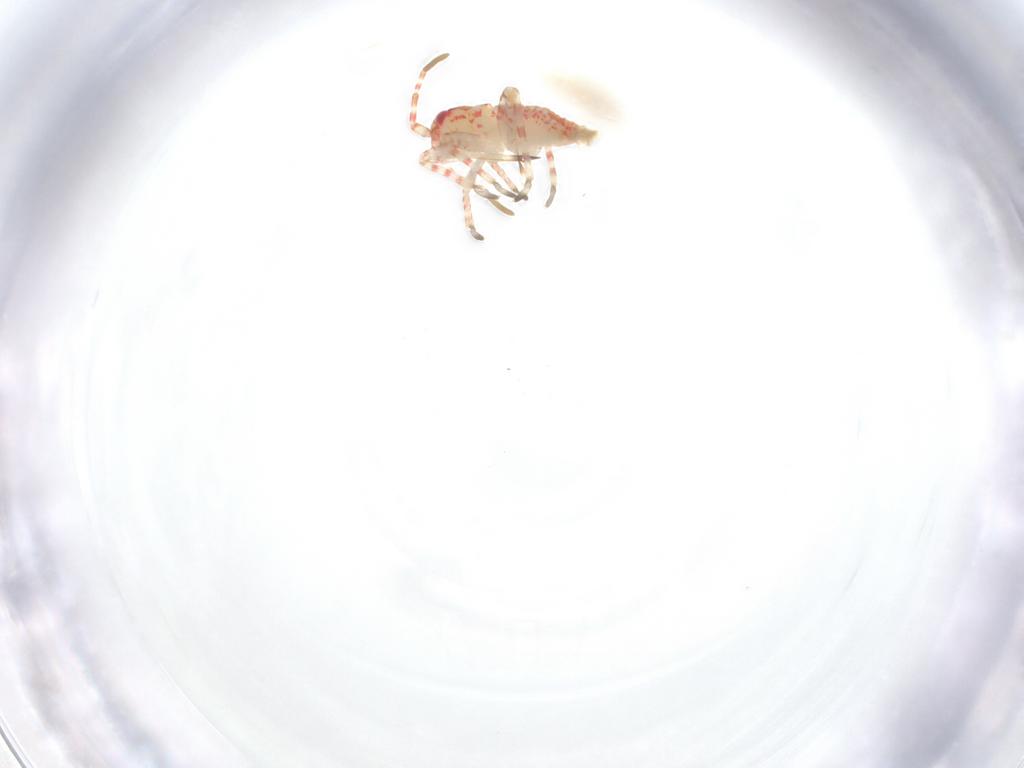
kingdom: Animalia
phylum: Arthropoda
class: Insecta
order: Hemiptera
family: Miridae
